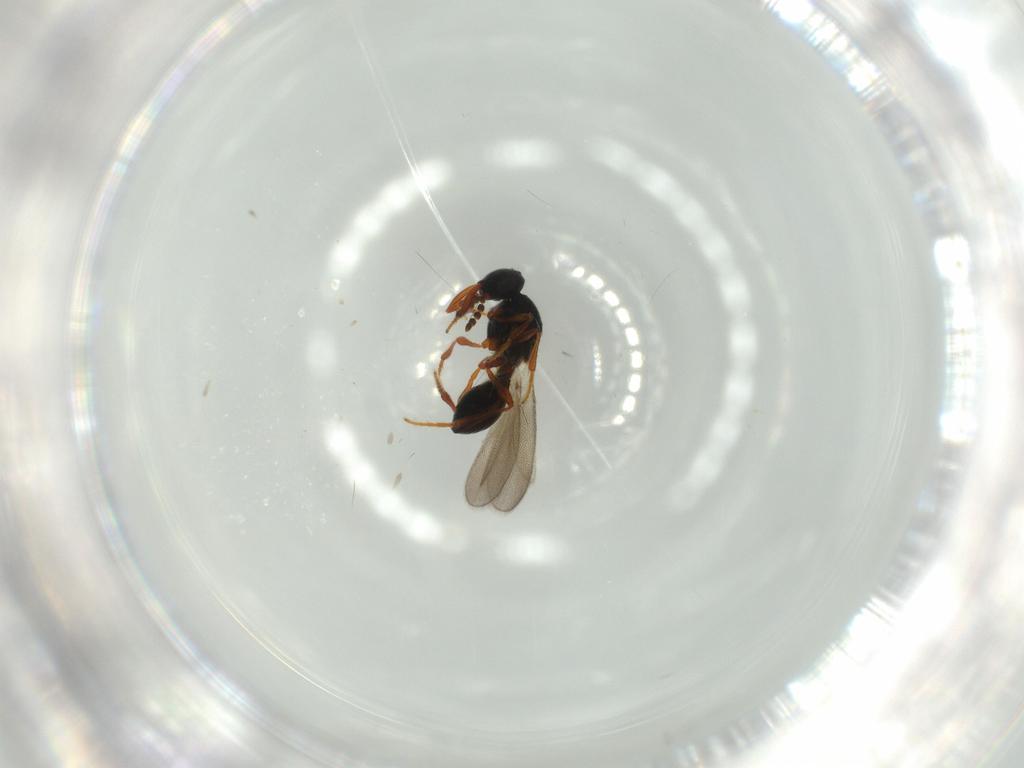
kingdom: Animalia
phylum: Arthropoda
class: Insecta
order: Hymenoptera
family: Platygastridae
